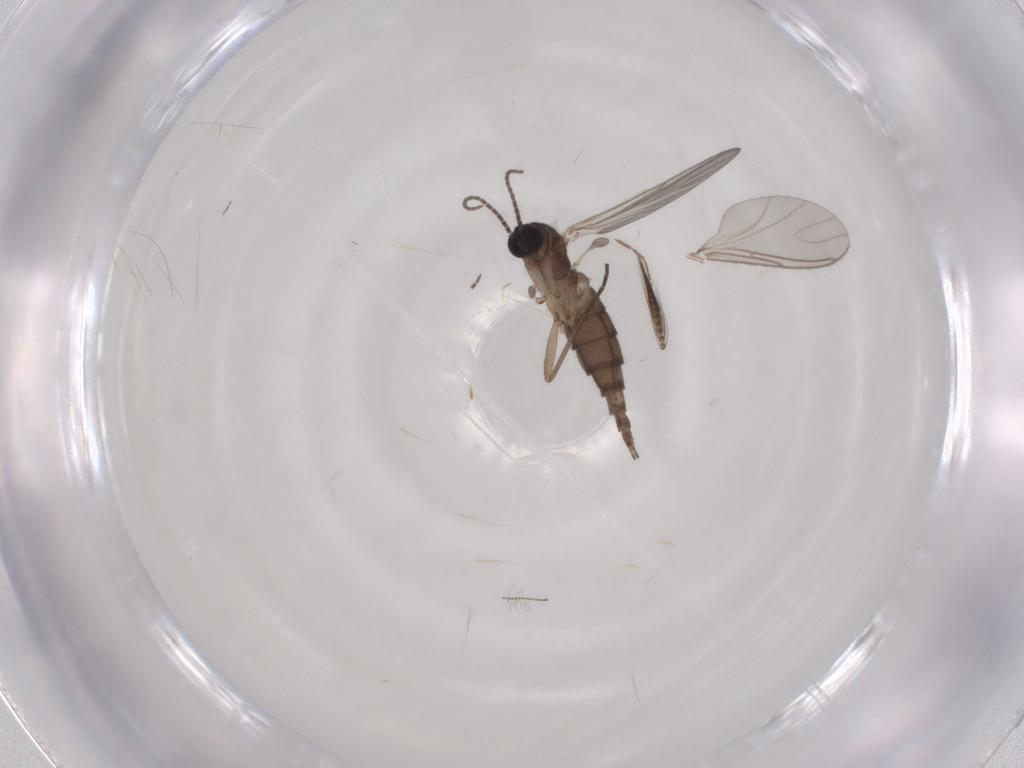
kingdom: Animalia
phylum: Arthropoda
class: Insecta
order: Diptera
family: Sciaridae
